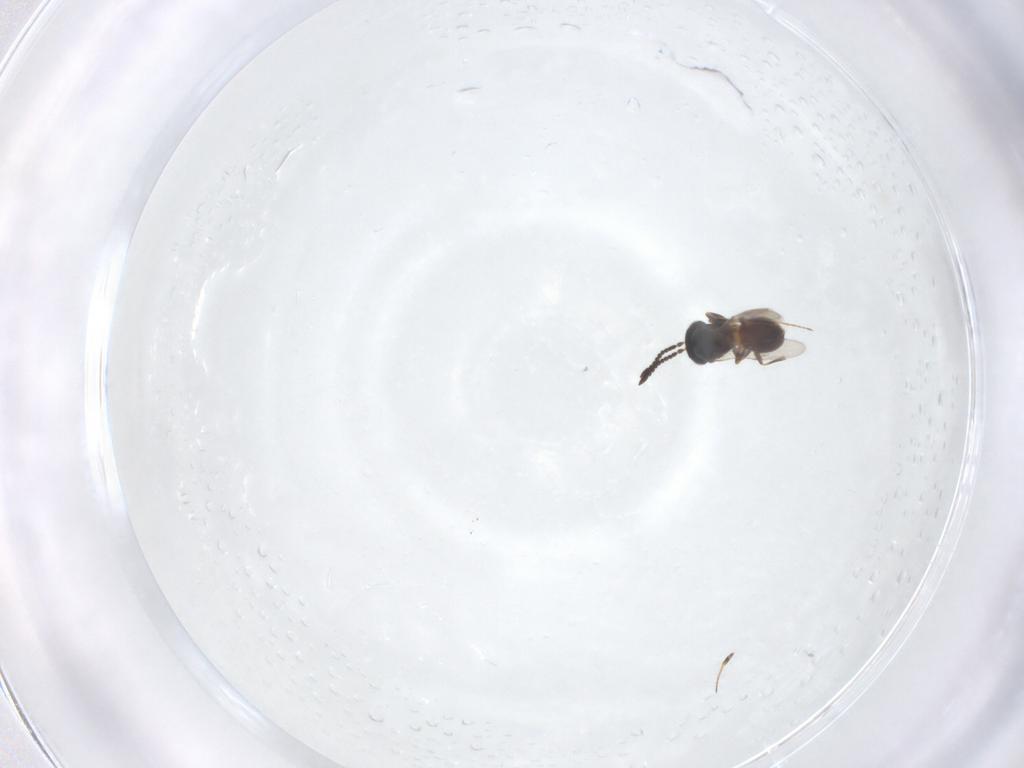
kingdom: Animalia
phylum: Arthropoda
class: Insecta
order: Hymenoptera
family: Scelionidae
